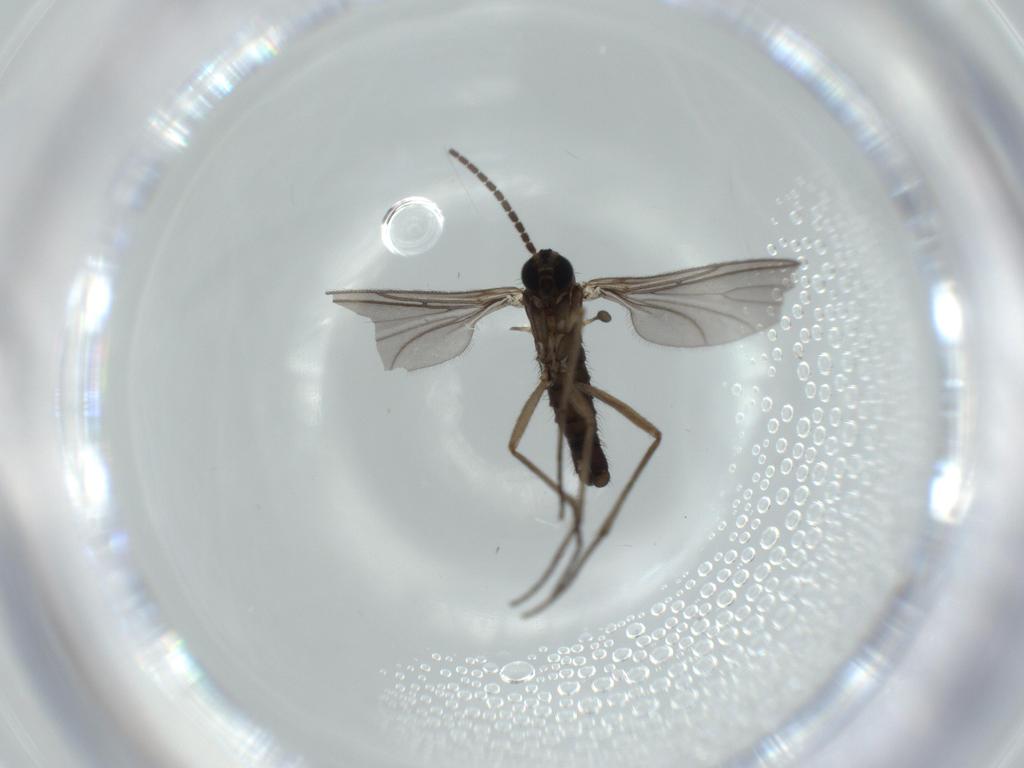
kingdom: Animalia
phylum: Arthropoda
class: Insecta
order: Diptera
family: Sciaridae
